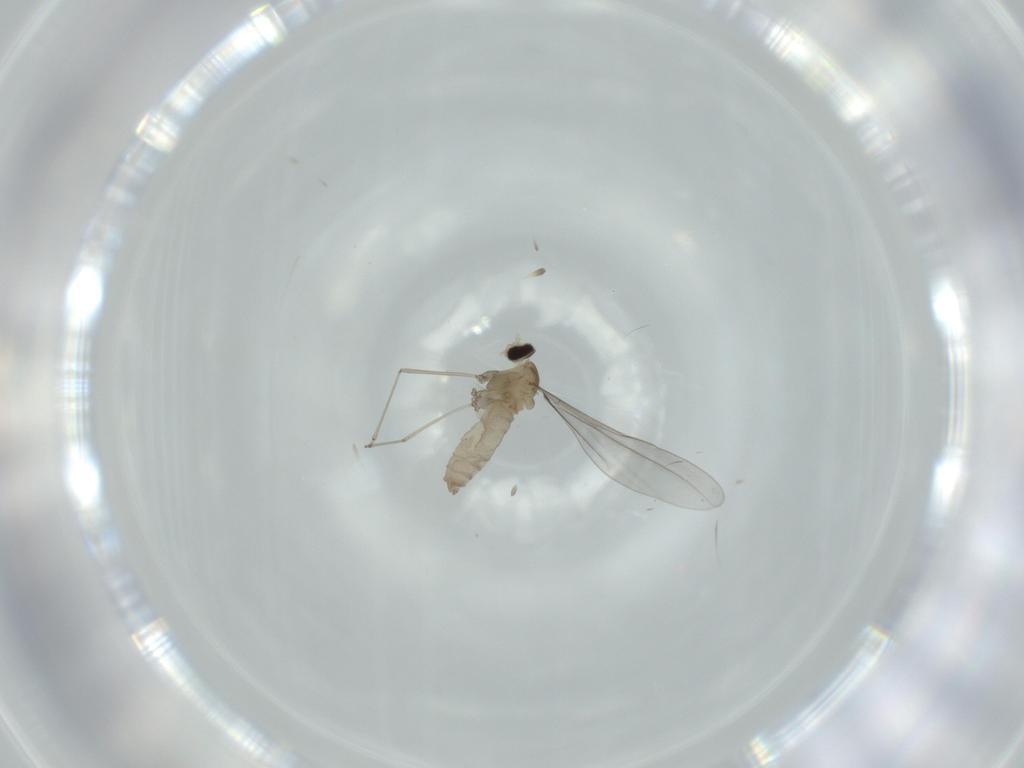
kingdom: Animalia
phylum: Arthropoda
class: Insecta
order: Diptera
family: Cecidomyiidae
